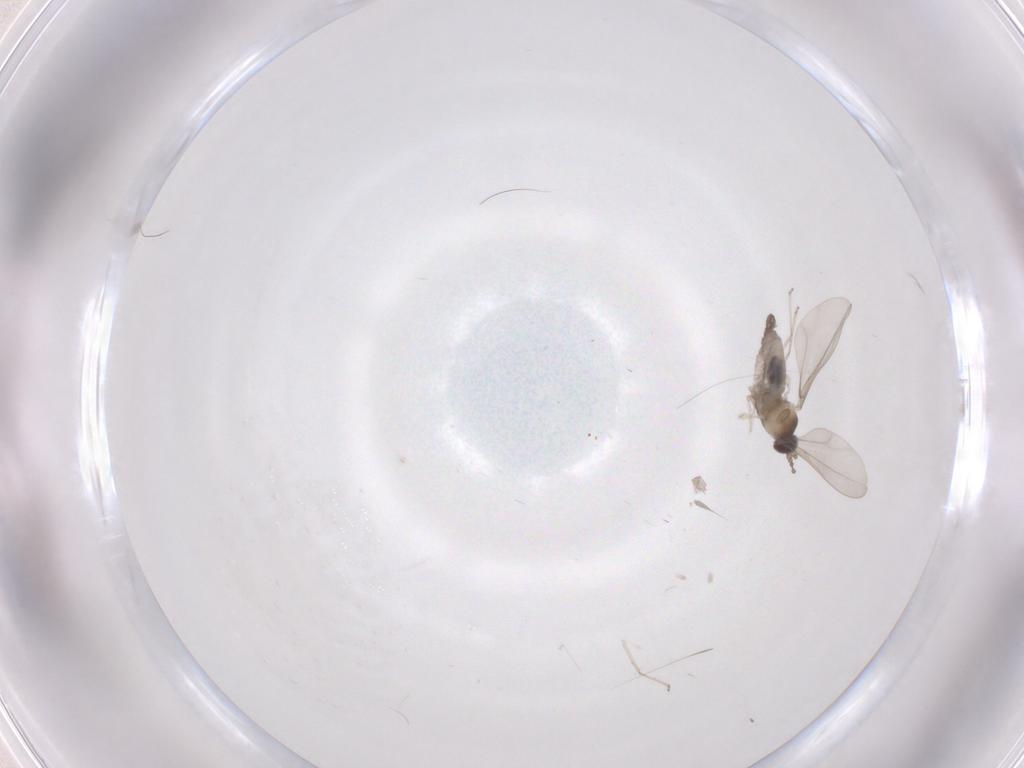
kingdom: Animalia
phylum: Arthropoda
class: Insecta
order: Diptera
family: Cecidomyiidae
